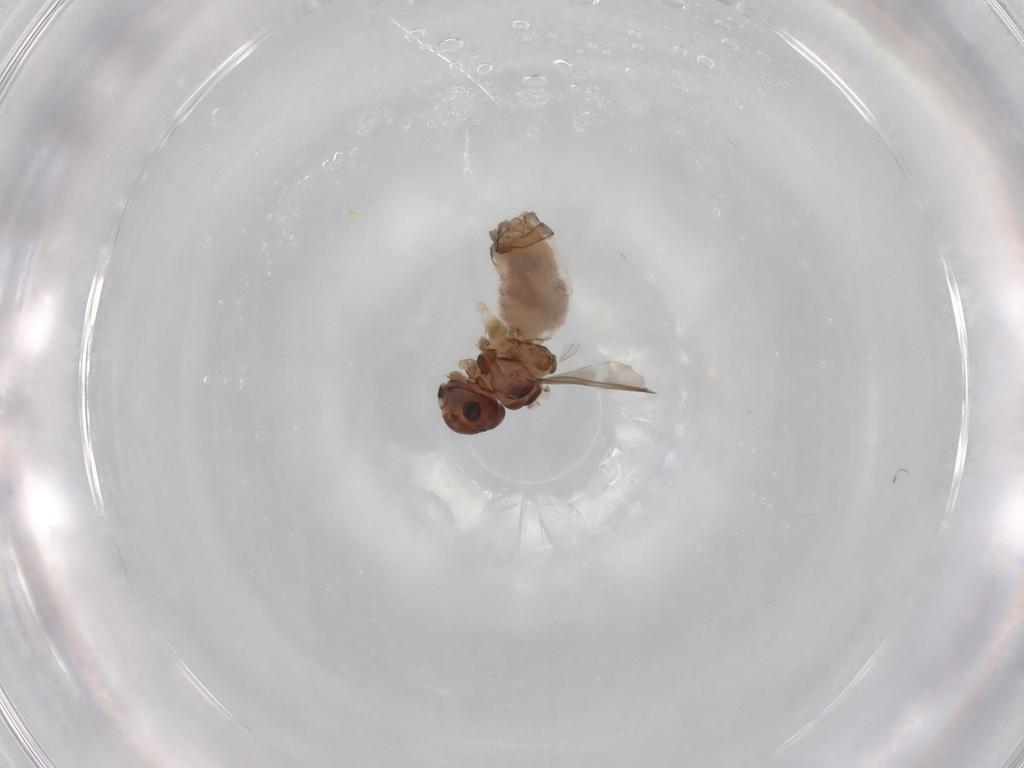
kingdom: Animalia
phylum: Arthropoda
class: Insecta
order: Psocodea
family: Peripsocidae
